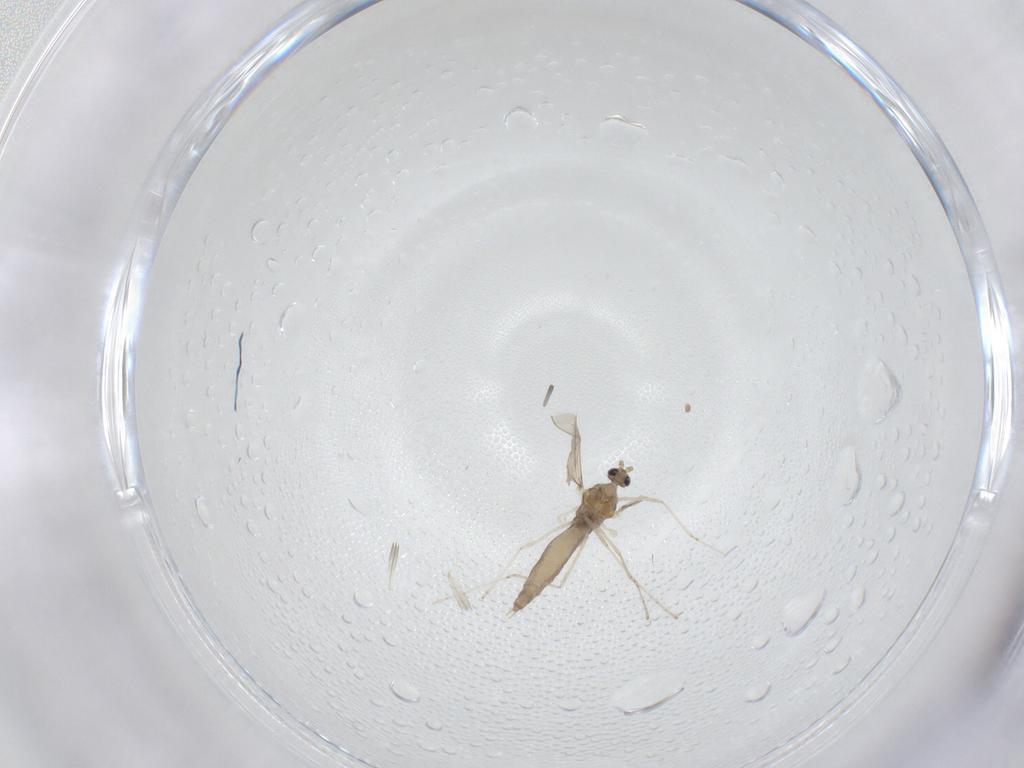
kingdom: Animalia
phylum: Arthropoda
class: Insecta
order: Diptera
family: Cecidomyiidae
